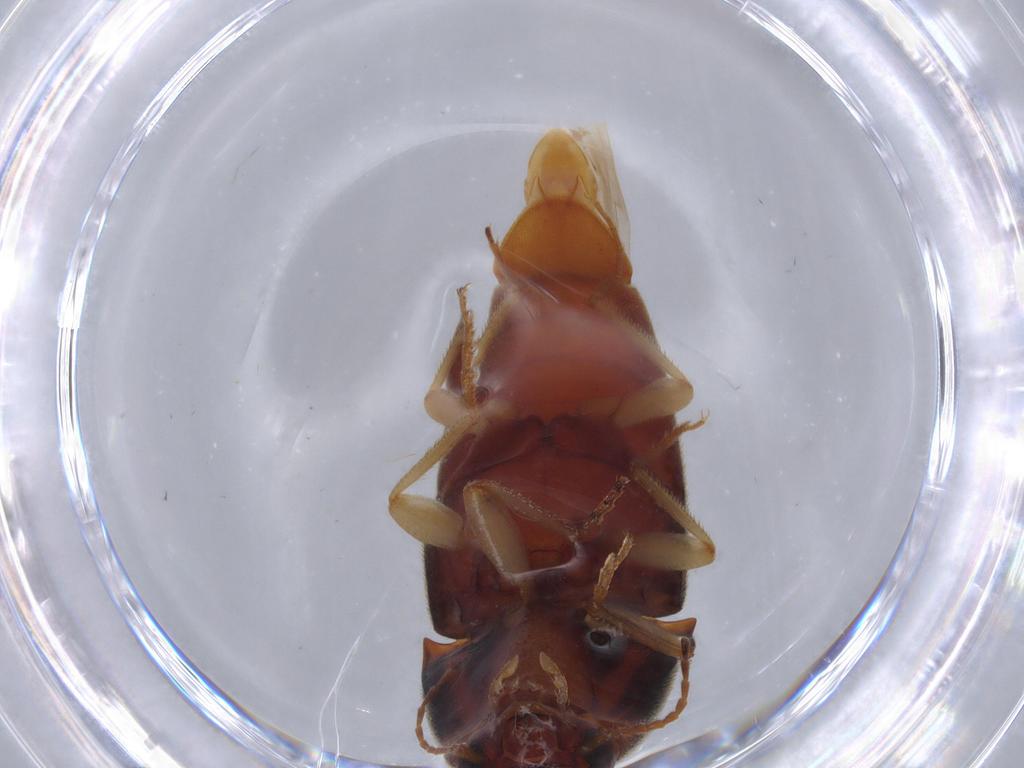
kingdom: Animalia
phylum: Arthropoda
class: Insecta
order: Coleoptera
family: Elateridae
